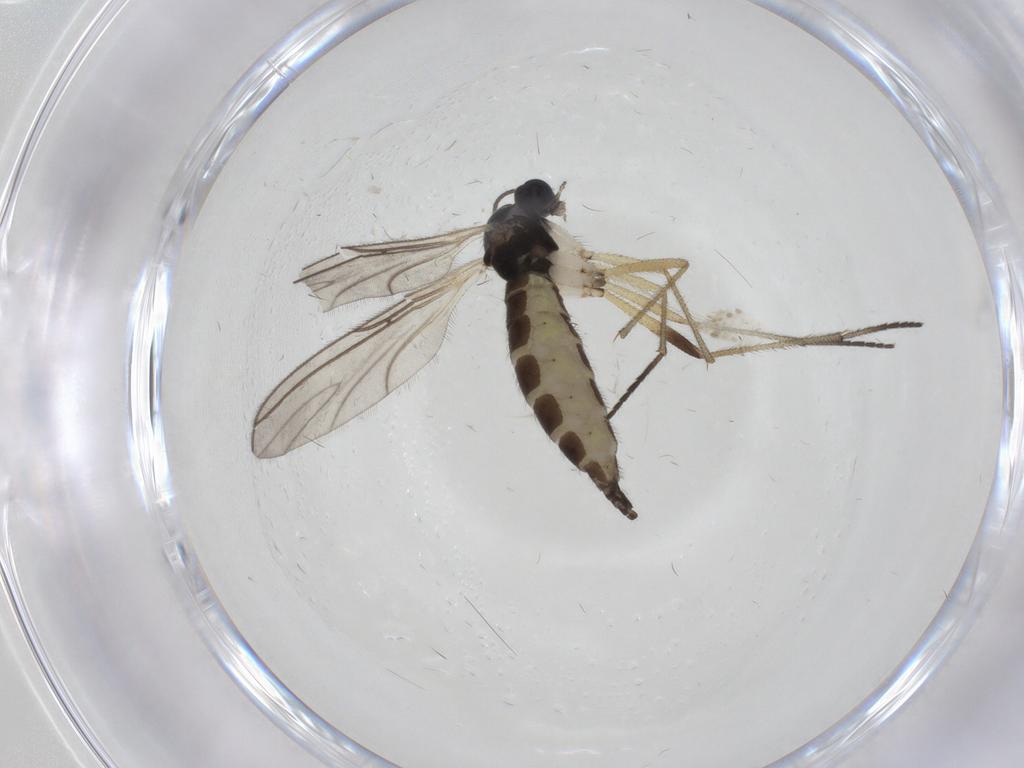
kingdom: Animalia
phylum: Arthropoda
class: Insecta
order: Diptera
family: Sciaridae
